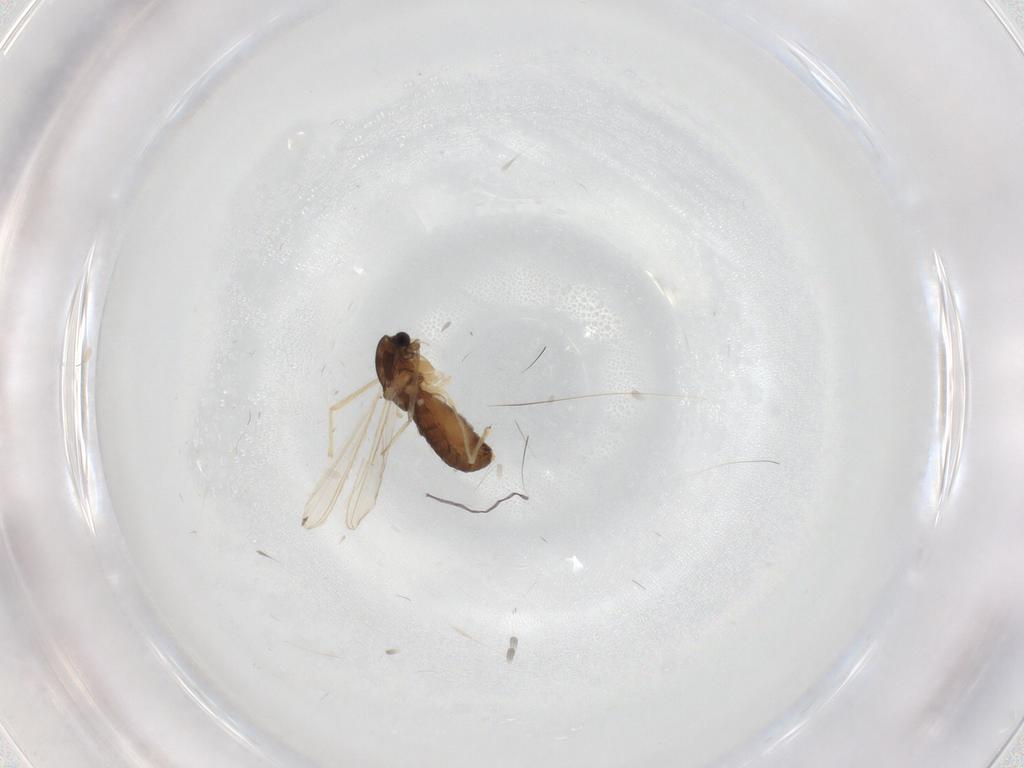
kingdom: Animalia
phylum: Arthropoda
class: Insecta
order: Diptera
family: Chironomidae
